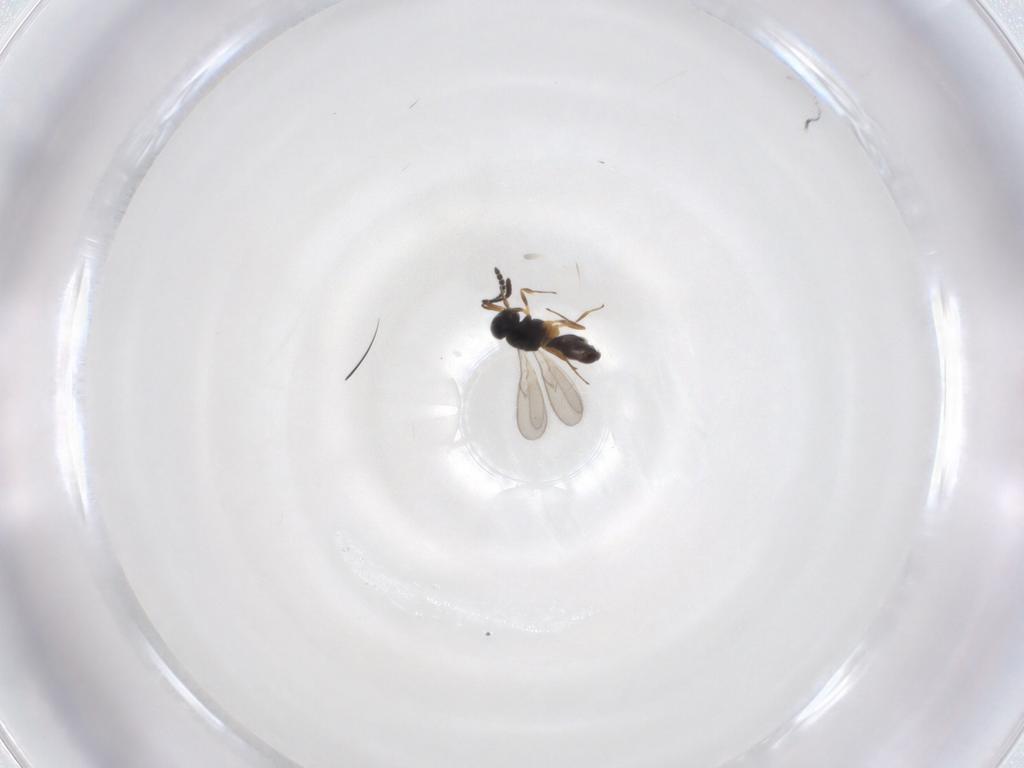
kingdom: Animalia
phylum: Arthropoda
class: Insecta
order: Hymenoptera
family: Scelionidae
